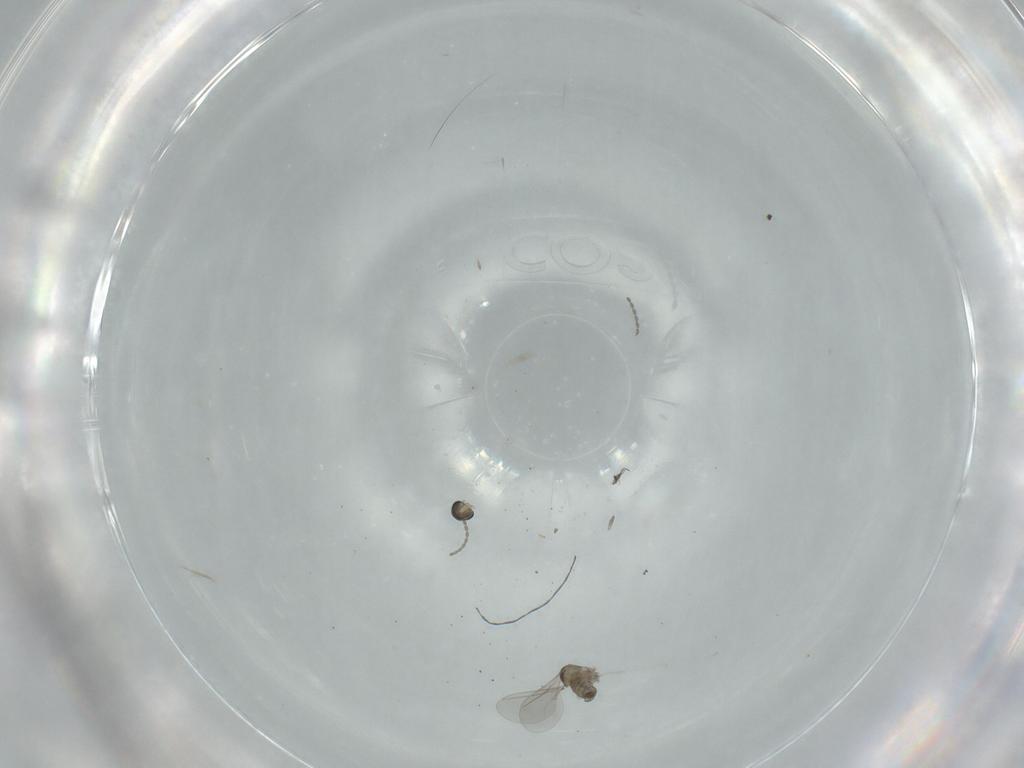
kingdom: Animalia
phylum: Arthropoda
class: Insecta
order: Diptera
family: Cecidomyiidae
